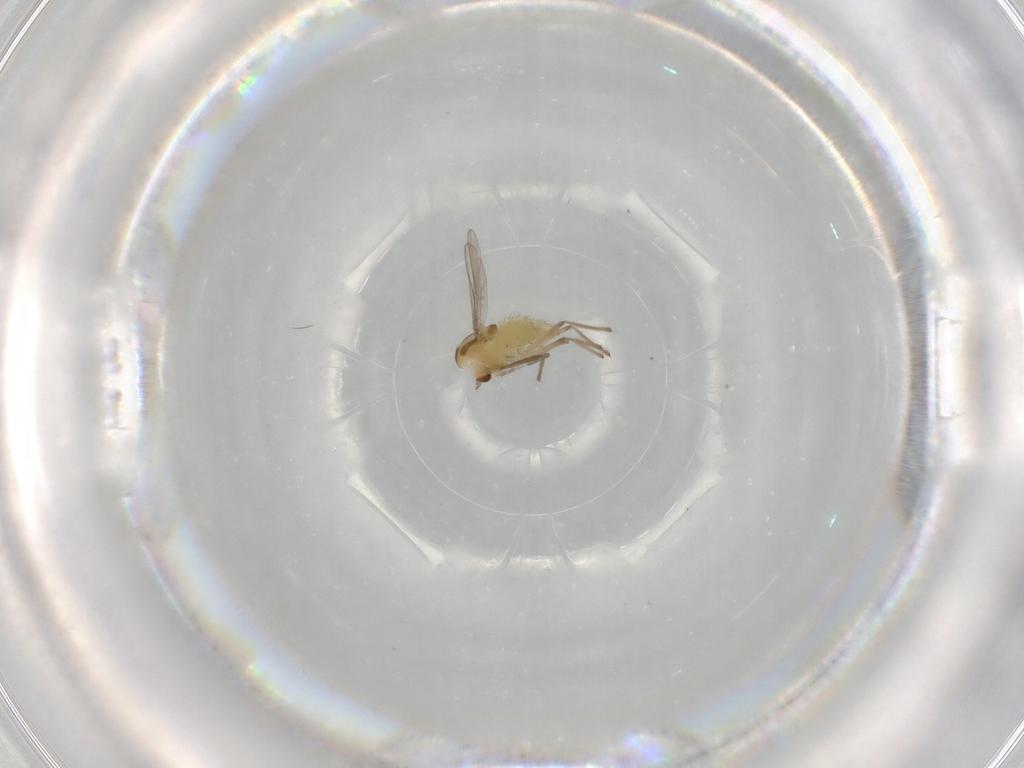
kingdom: Animalia
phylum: Arthropoda
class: Insecta
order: Diptera
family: Chironomidae
